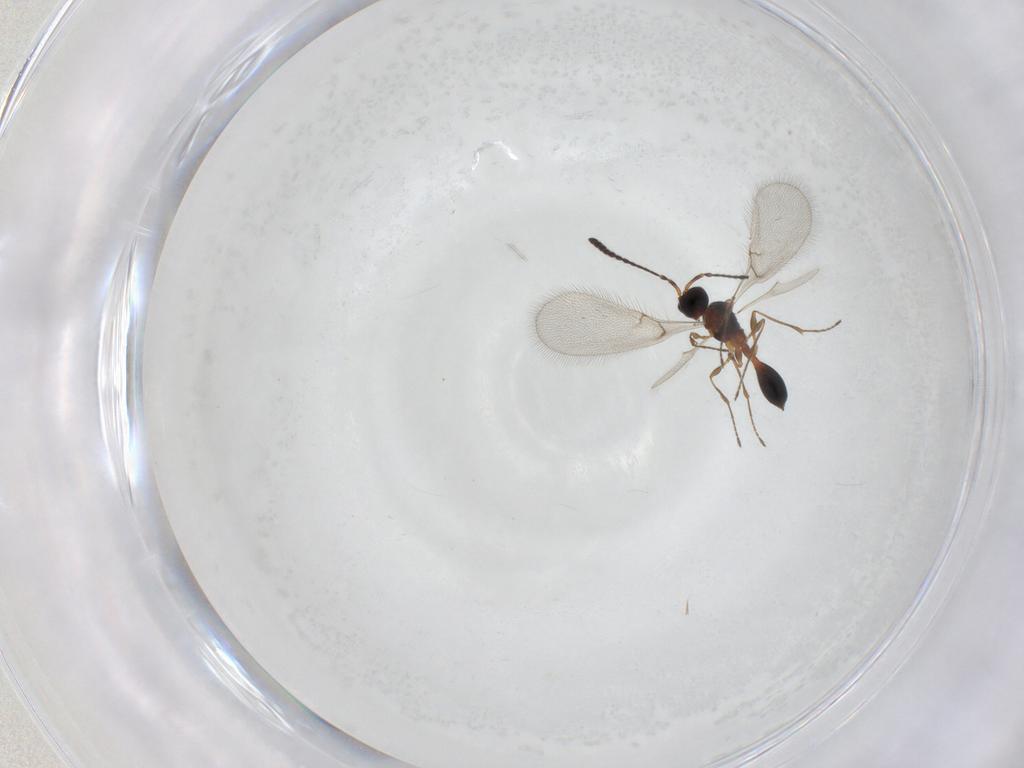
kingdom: Animalia
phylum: Arthropoda
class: Insecta
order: Hymenoptera
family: Diapriidae
